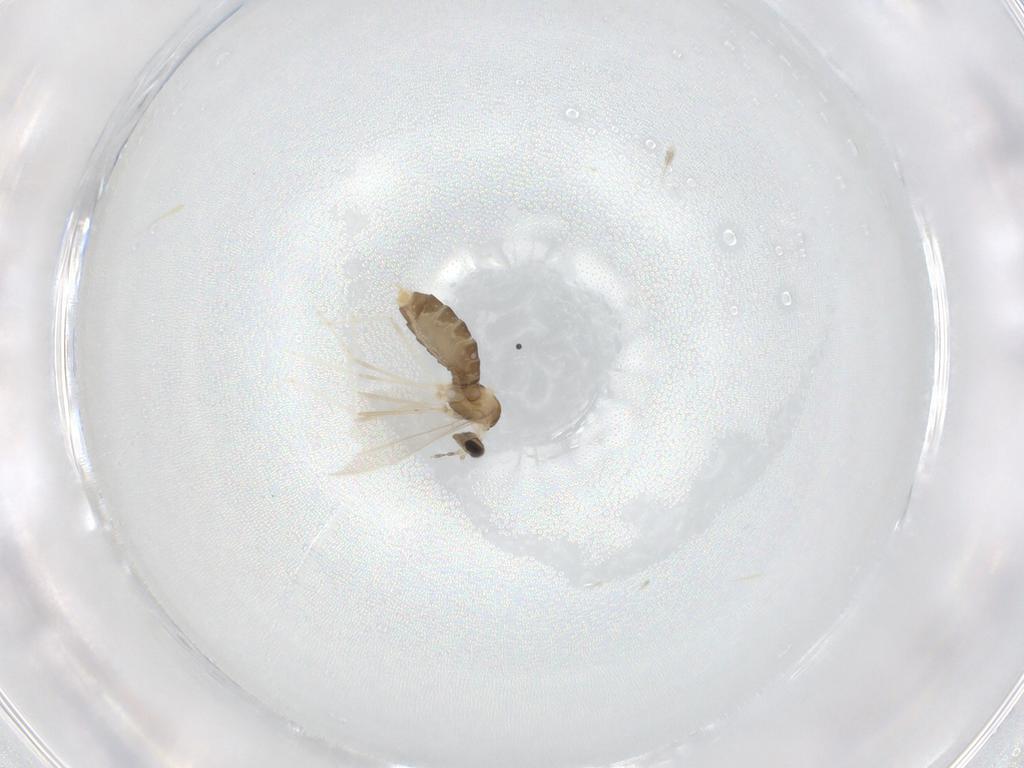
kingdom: Animalia
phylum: Arthropoda
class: Insecta
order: Diptera
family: Cecidomyiidae
